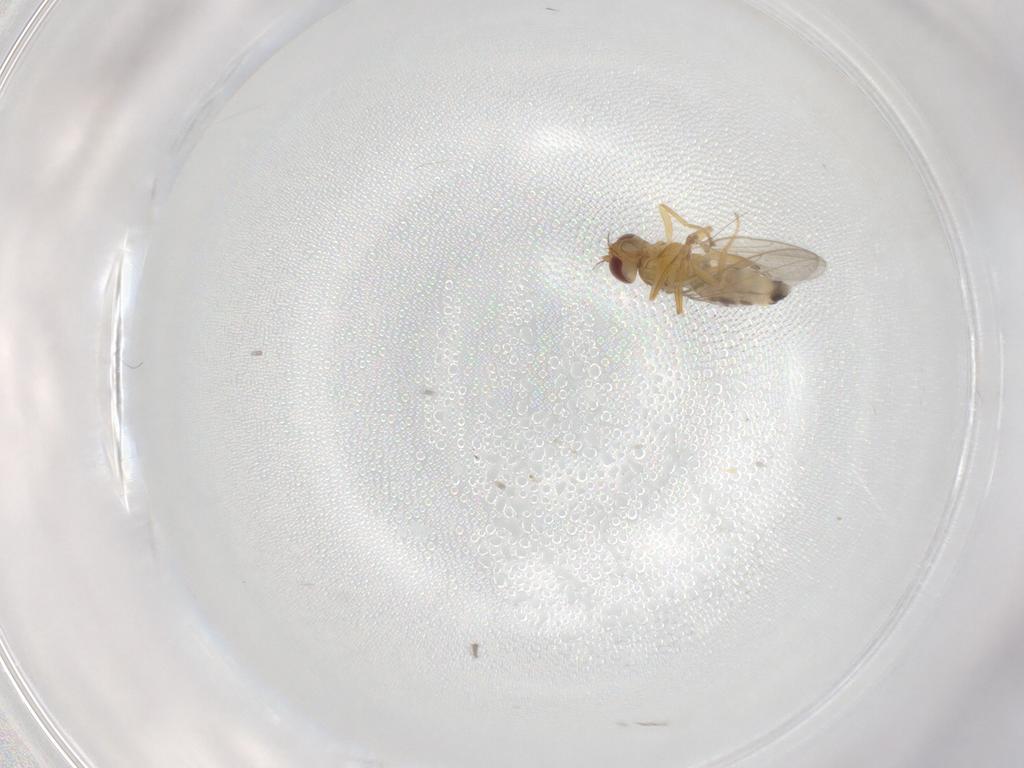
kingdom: Animalia
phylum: Arthropoda
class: Insecta
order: Diptera
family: Periscelididae
